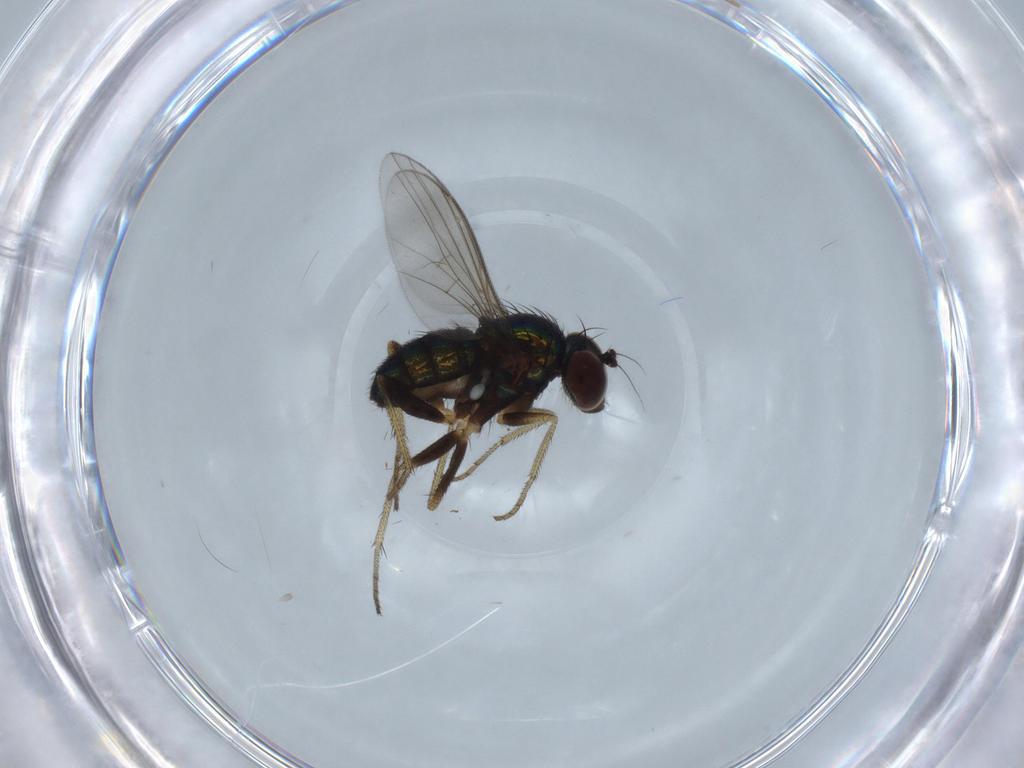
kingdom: Animalia
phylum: Arthropoda
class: Insecta
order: Diptera
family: Dolichopodidae
